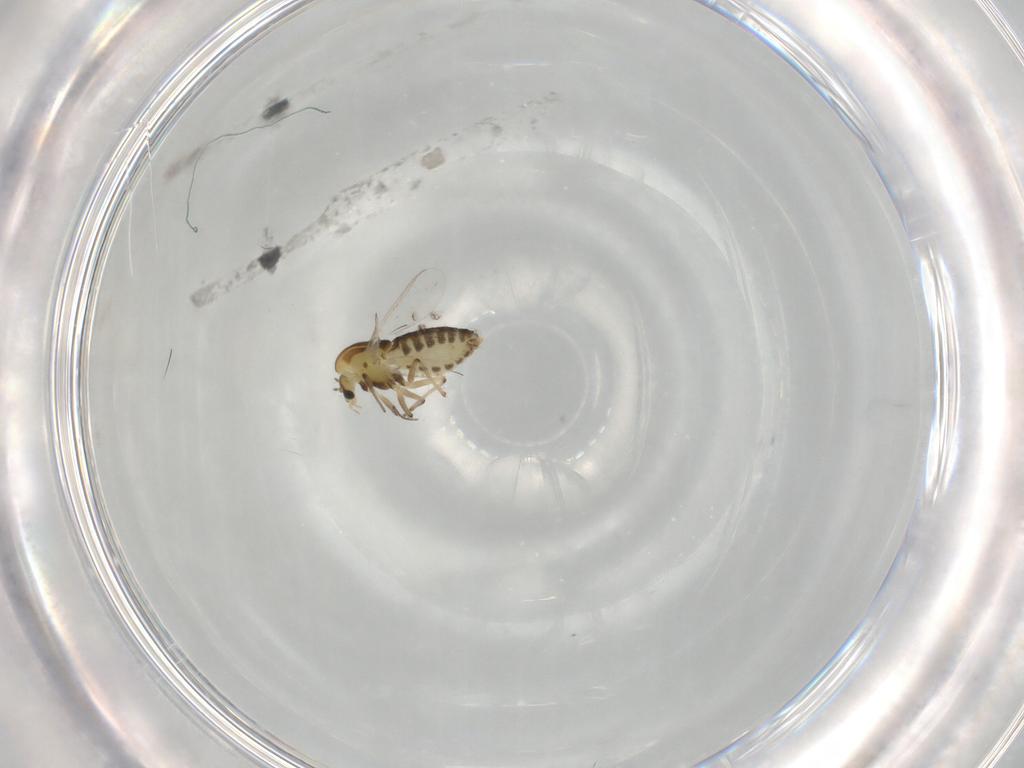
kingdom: Animalia
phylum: Arthropoda
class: Insecta
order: Diptera
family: Chironomidae
